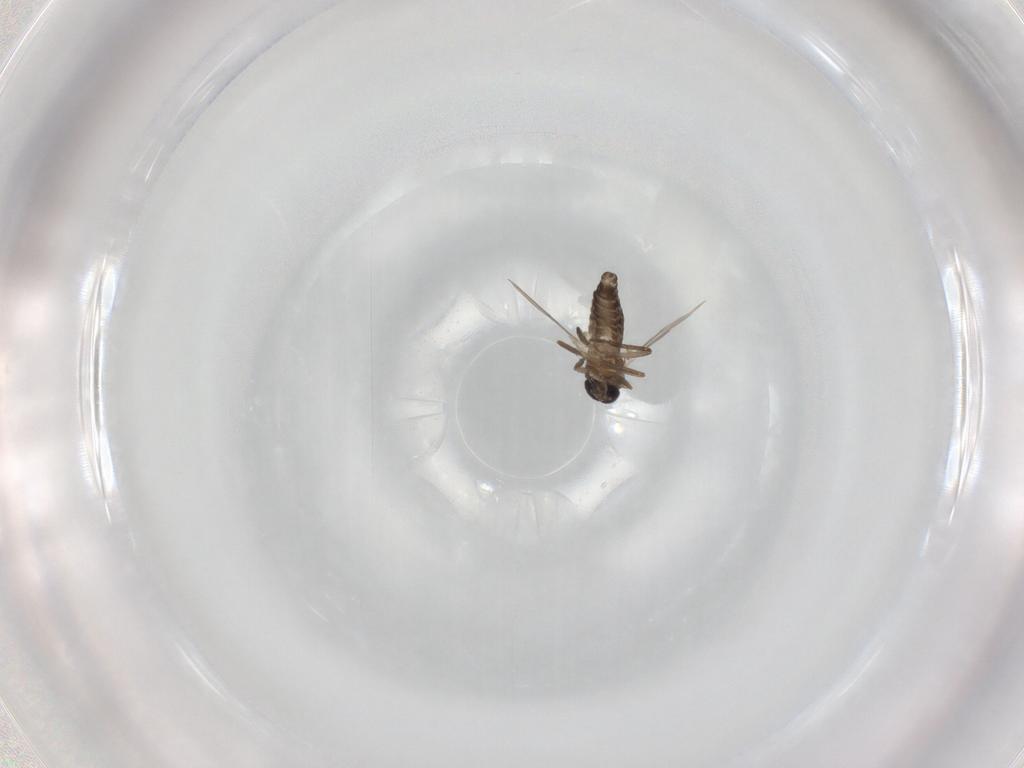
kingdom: Animalia
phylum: Arthropoda
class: Insecta
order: Diptera
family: Ceratopogonidae
